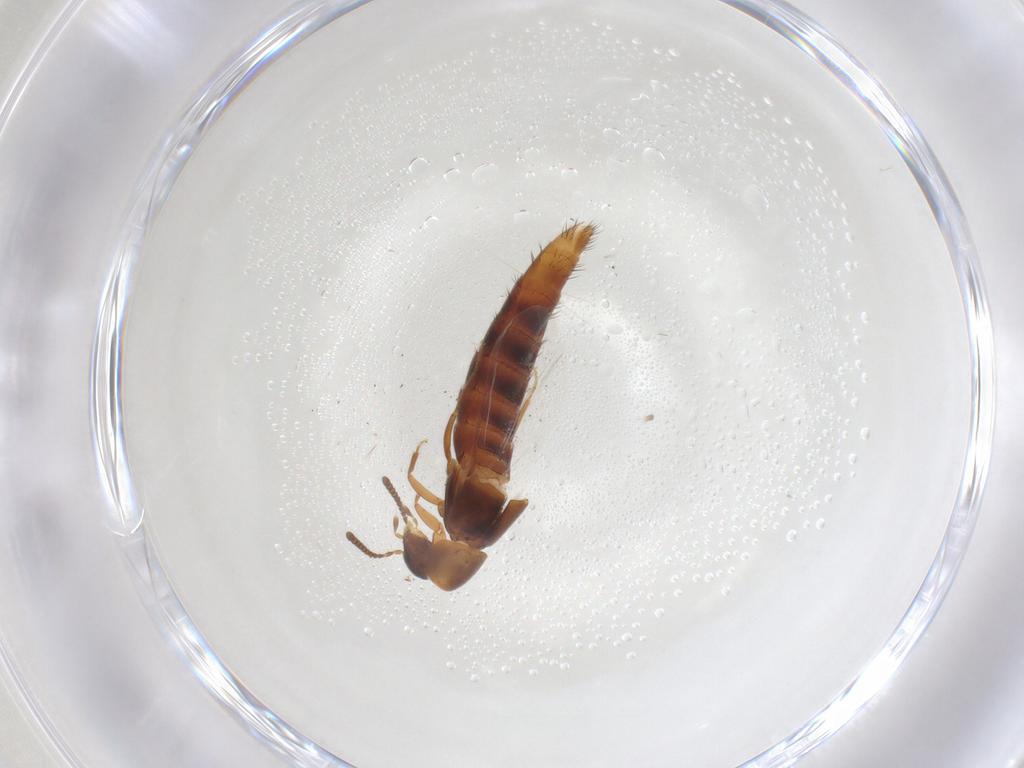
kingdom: Animalia
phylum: Arthropoda
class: Insecta
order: Coleoptera
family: Staphylinidae
